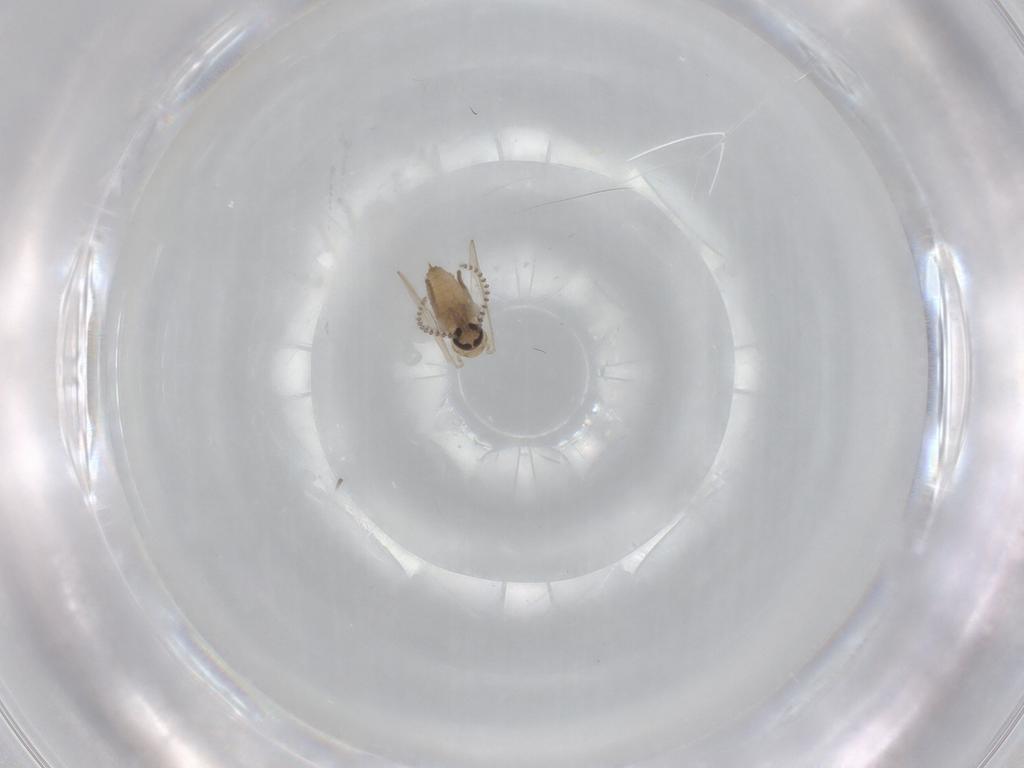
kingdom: Animalia
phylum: Arthropoda
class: Insecta
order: Diptera
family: Psychodidae
